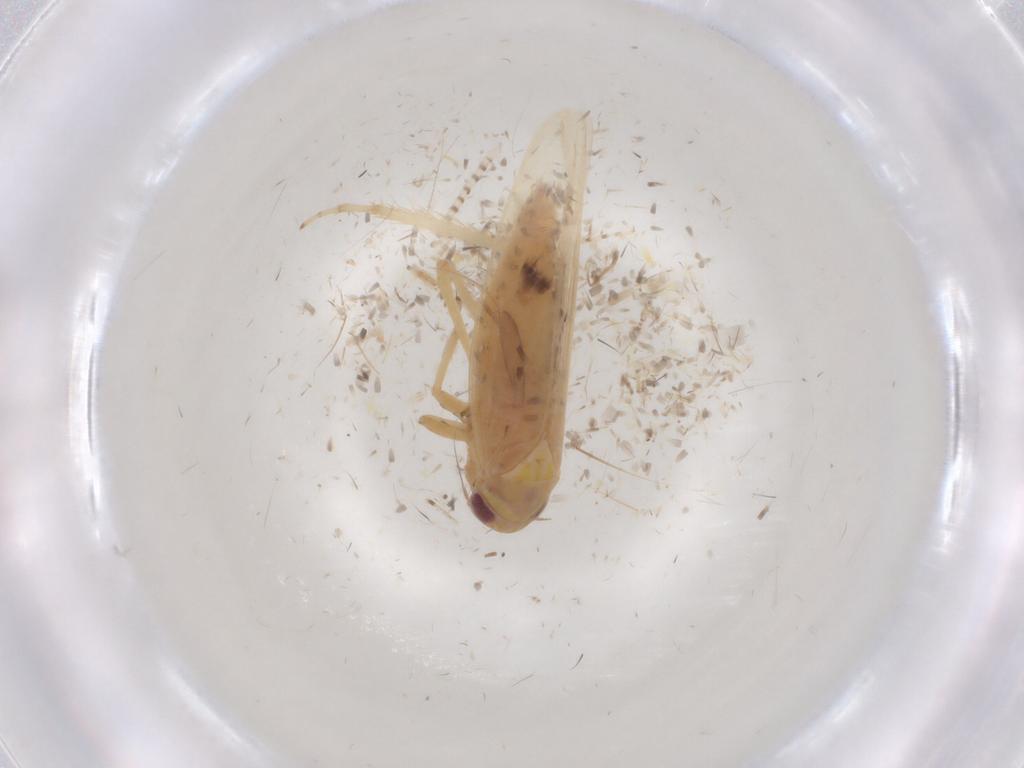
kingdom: Animalia
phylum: Arthropoda
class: Insecta
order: Hemiptera
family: Cicadellidae
